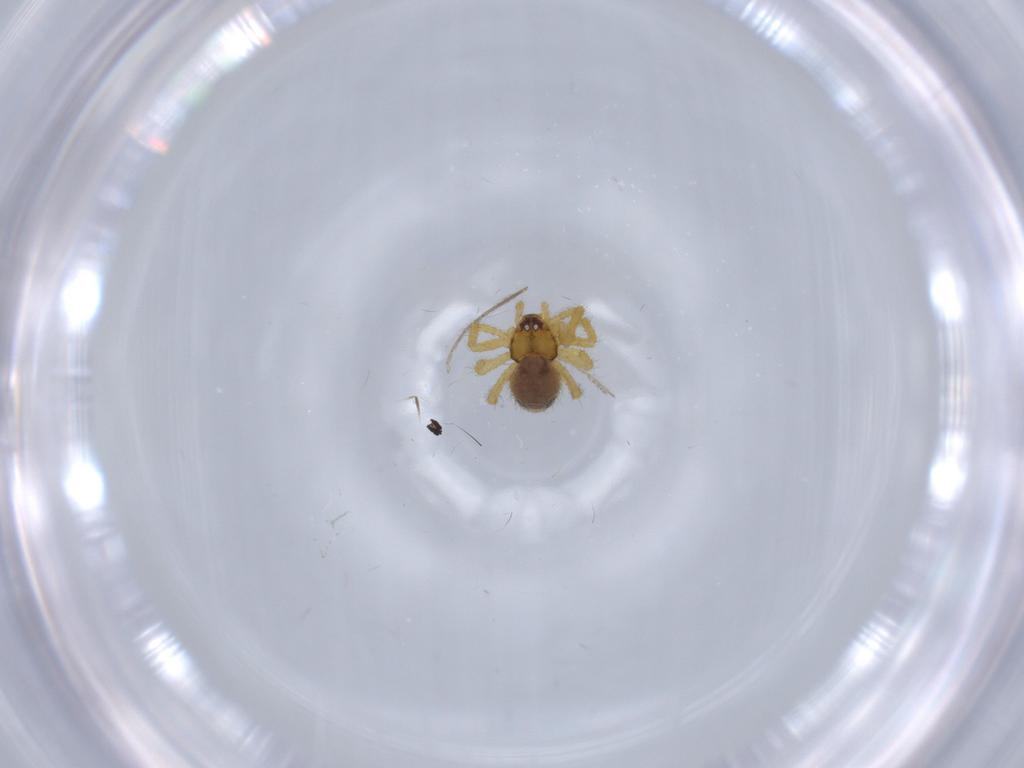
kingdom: Animalia
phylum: Arthropoda
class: Arachnida
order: Araneae
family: Theridiidae
